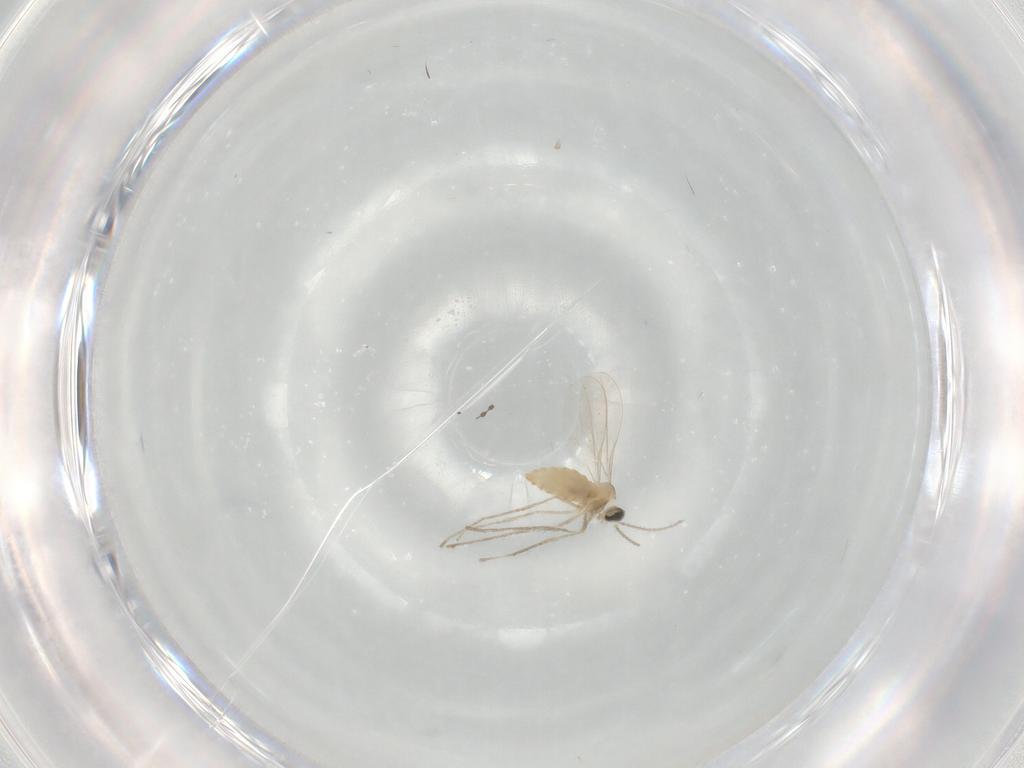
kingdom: Animalia
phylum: Arthropoda
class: Insecta
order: Diptera
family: Cecidomyiidae
